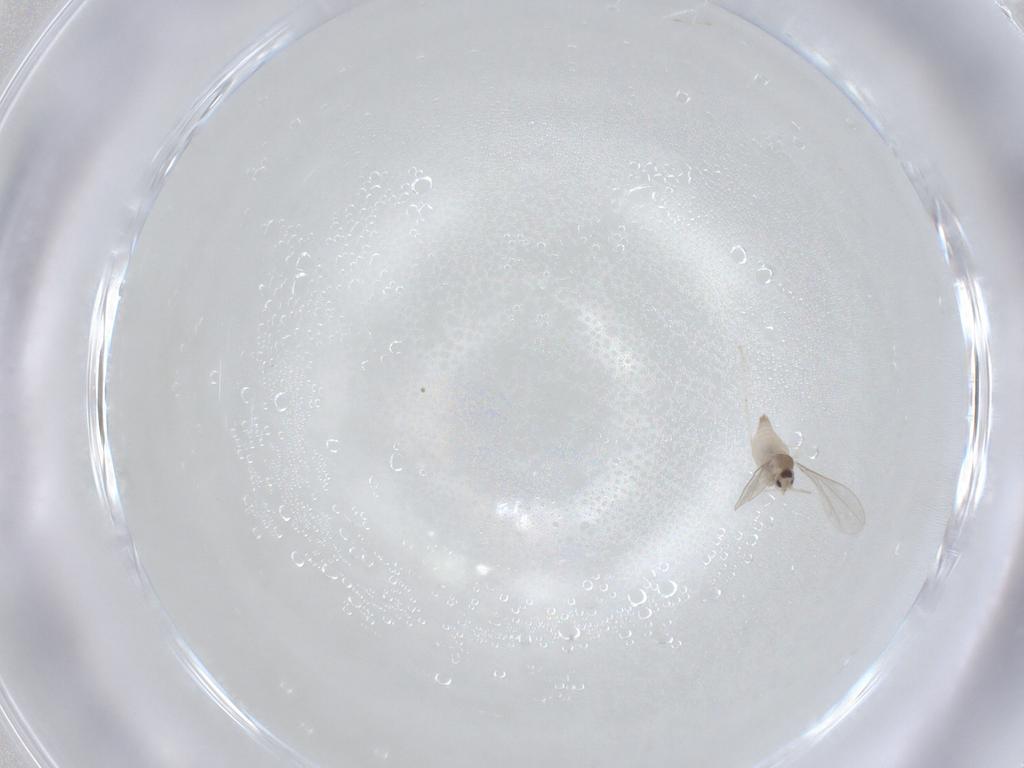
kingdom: Animalia
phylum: Arthropoda
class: Insecta
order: Diptera
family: Cecidomyiidae
